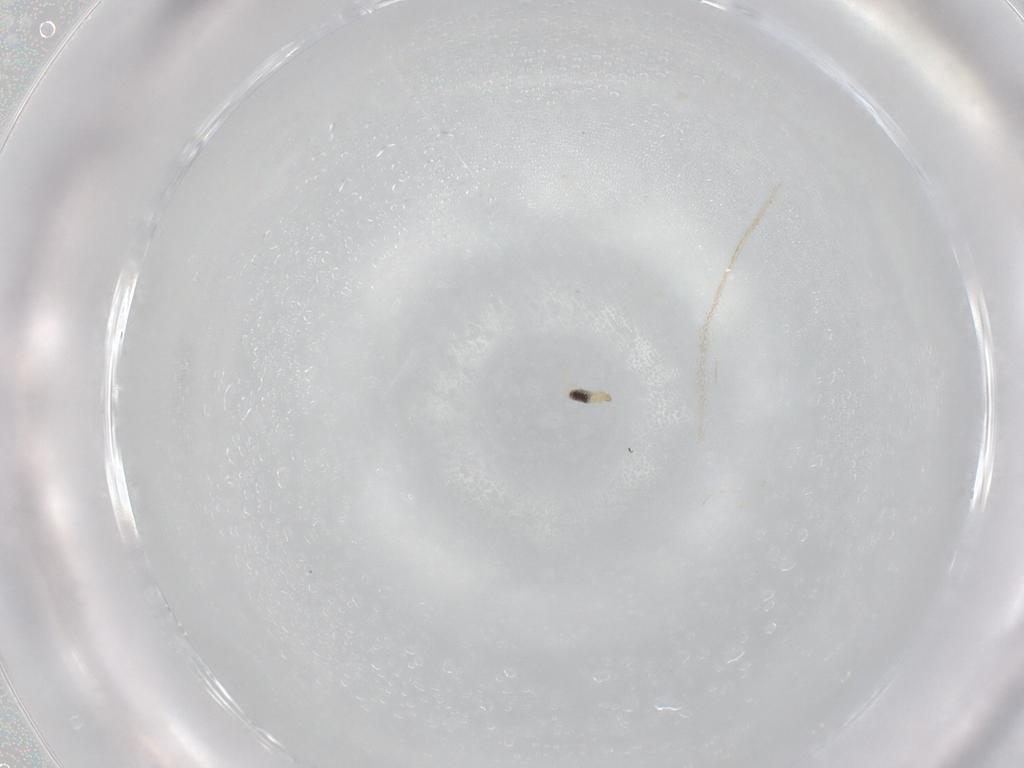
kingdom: Animalia
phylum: Arthropoda
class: Insecta
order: Diptera
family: Cecidomyiidae
